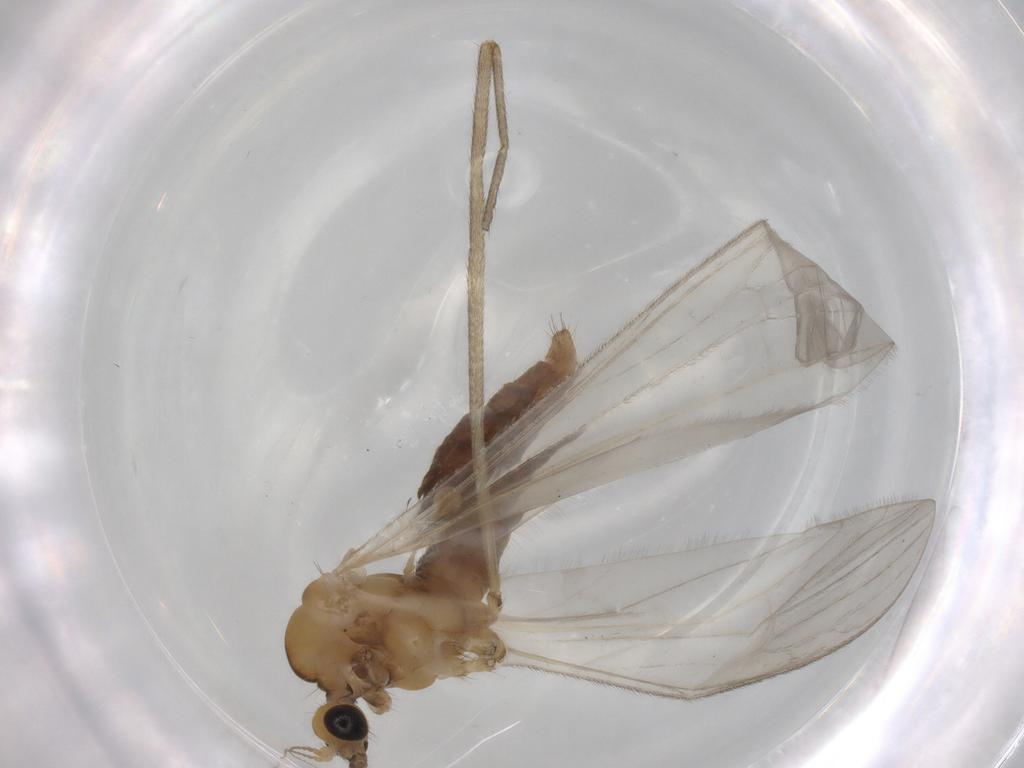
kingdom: Animalia
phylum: Arthropoda
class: Insecta
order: Diptera
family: Limoniidae
